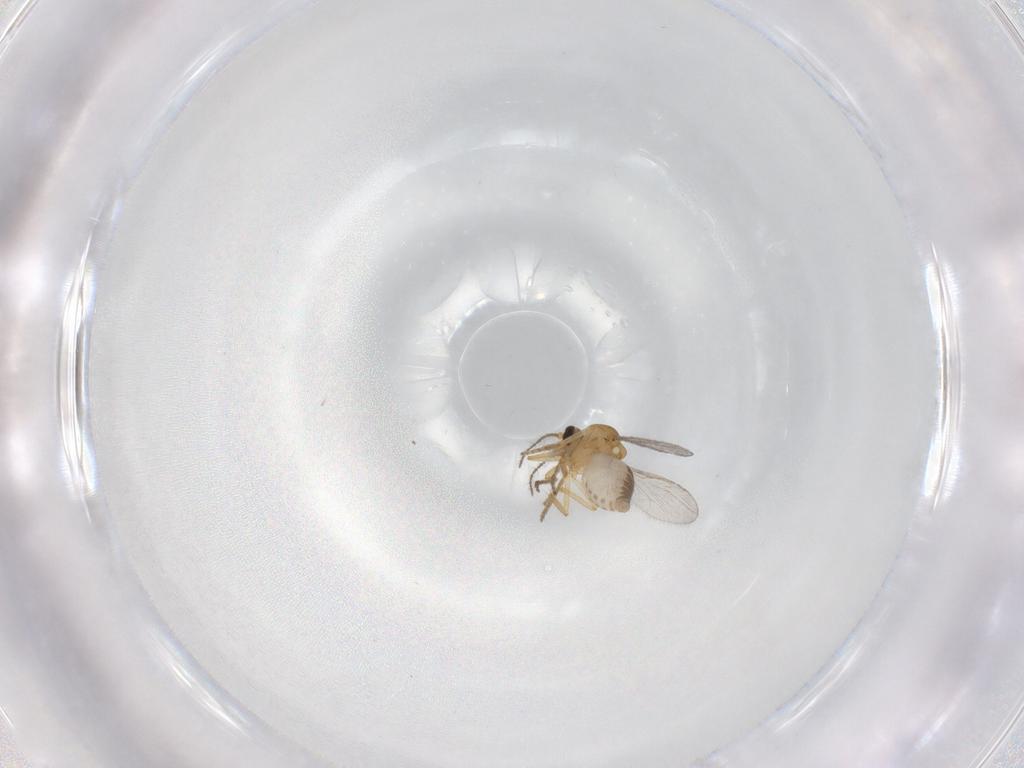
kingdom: Animalia
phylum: Arthropoda
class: Insecta
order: Diptera
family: Ceratopogonidae
